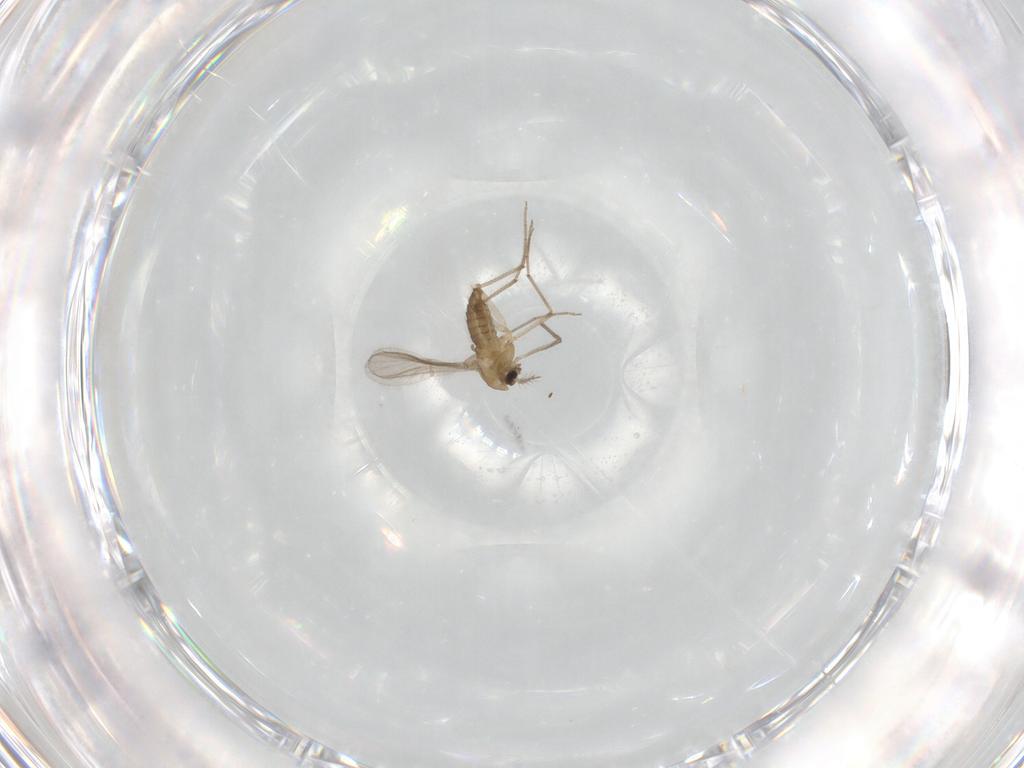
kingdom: Animalia
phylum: Arthropoda
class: Insecta
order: Diptera
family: Chironomidae
